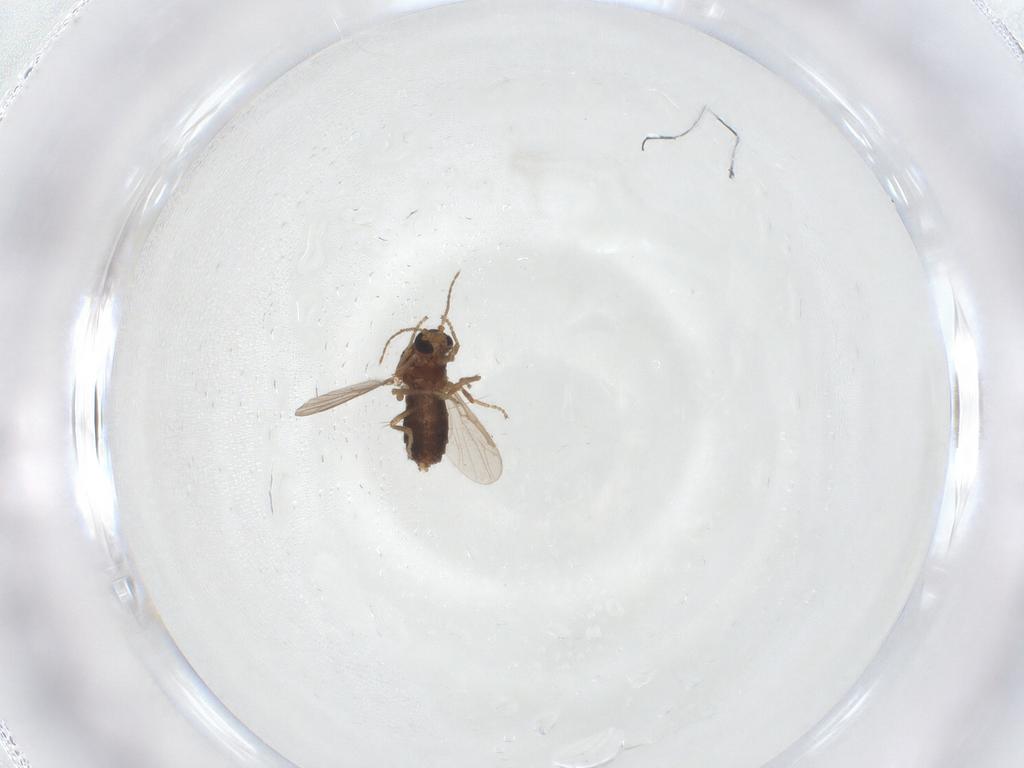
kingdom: Animalia
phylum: Arthropoda
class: Insecta
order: Diptera
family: Ceratopogonidae
